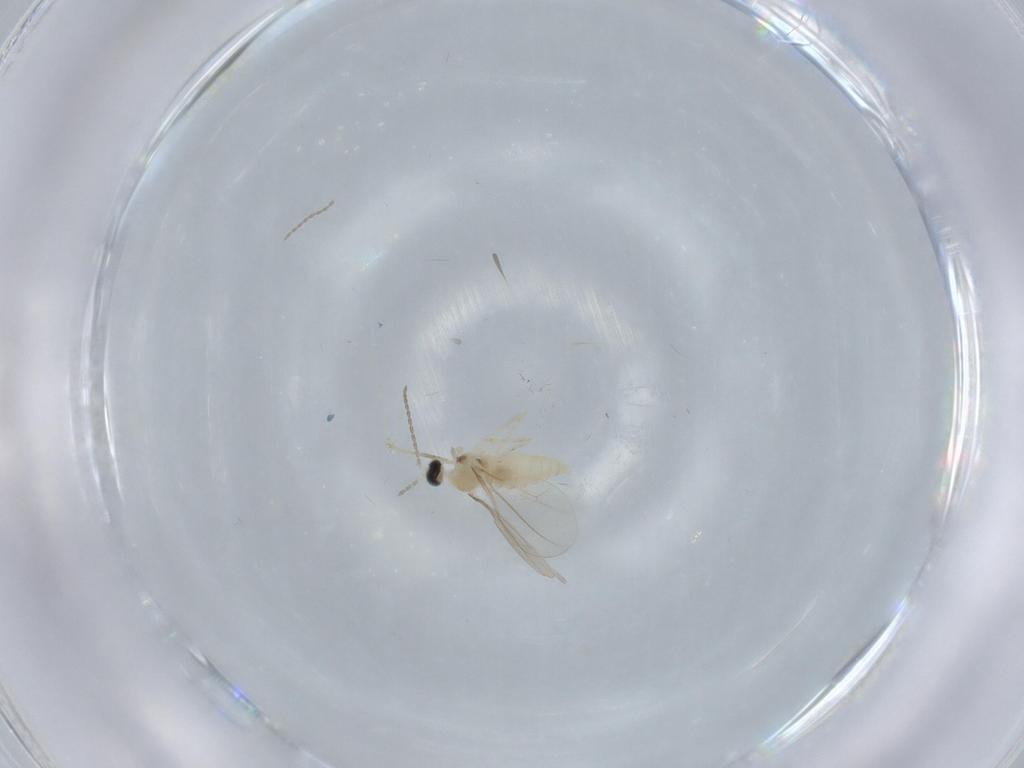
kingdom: Animalia
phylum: Arthropoda
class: Insecta
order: Diptera
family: Cecidomyiidae
